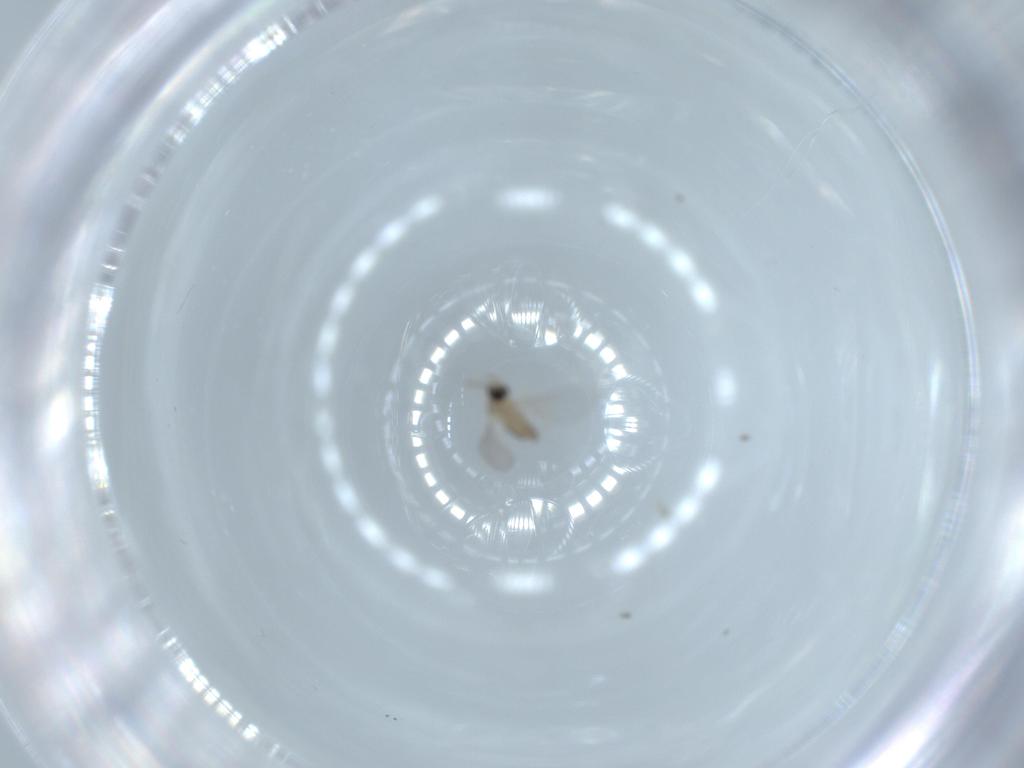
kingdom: Animalia
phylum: Arthropoda
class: Insecta
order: Diptera
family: Cecidomyiidae
